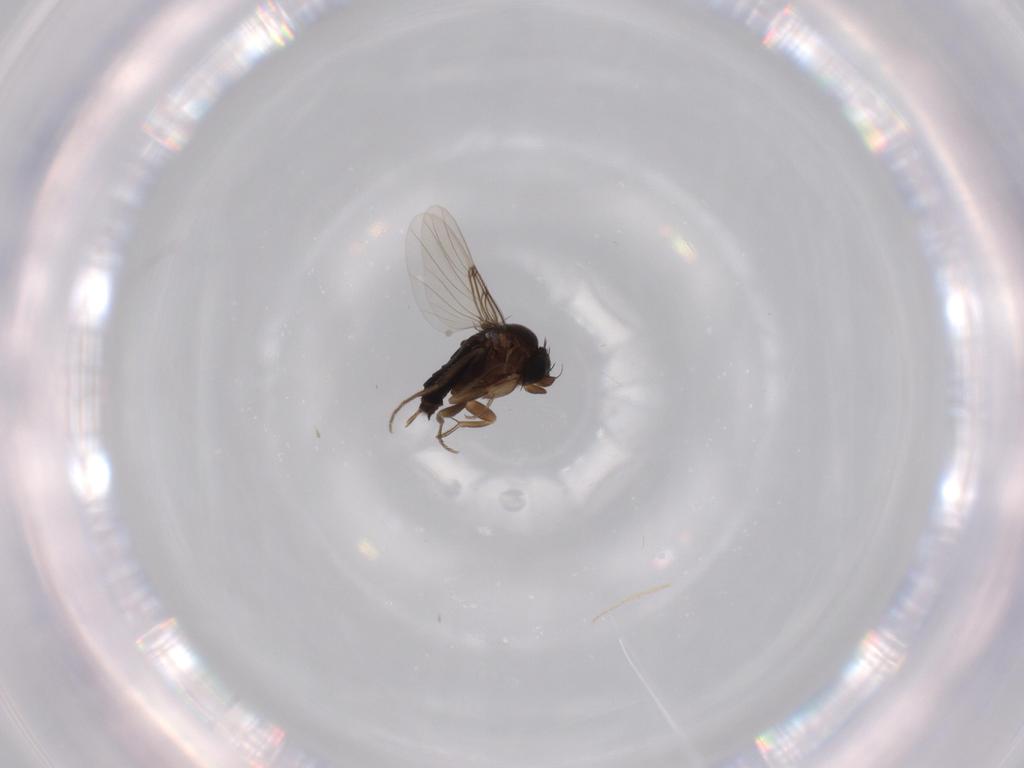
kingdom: Animalia
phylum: Arthropoda
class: Insecta
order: Diptera
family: Phoridae
